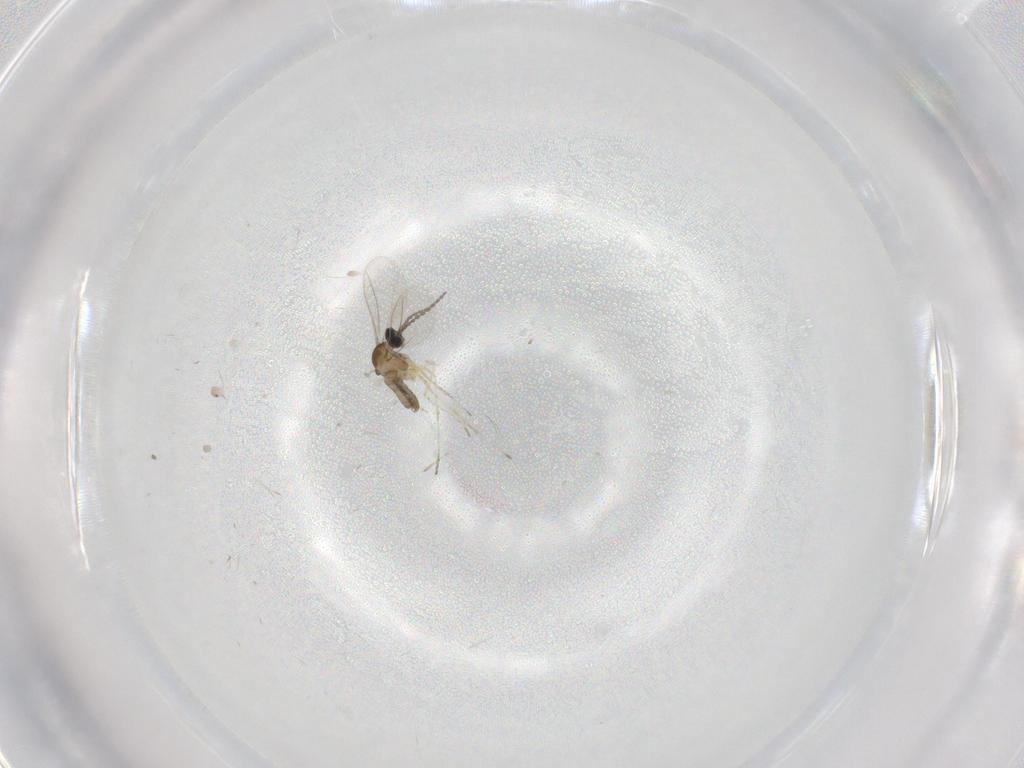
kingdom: Animalia
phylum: Arthropoda
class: Insecta
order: Diptera
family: Cecidomyiidae
